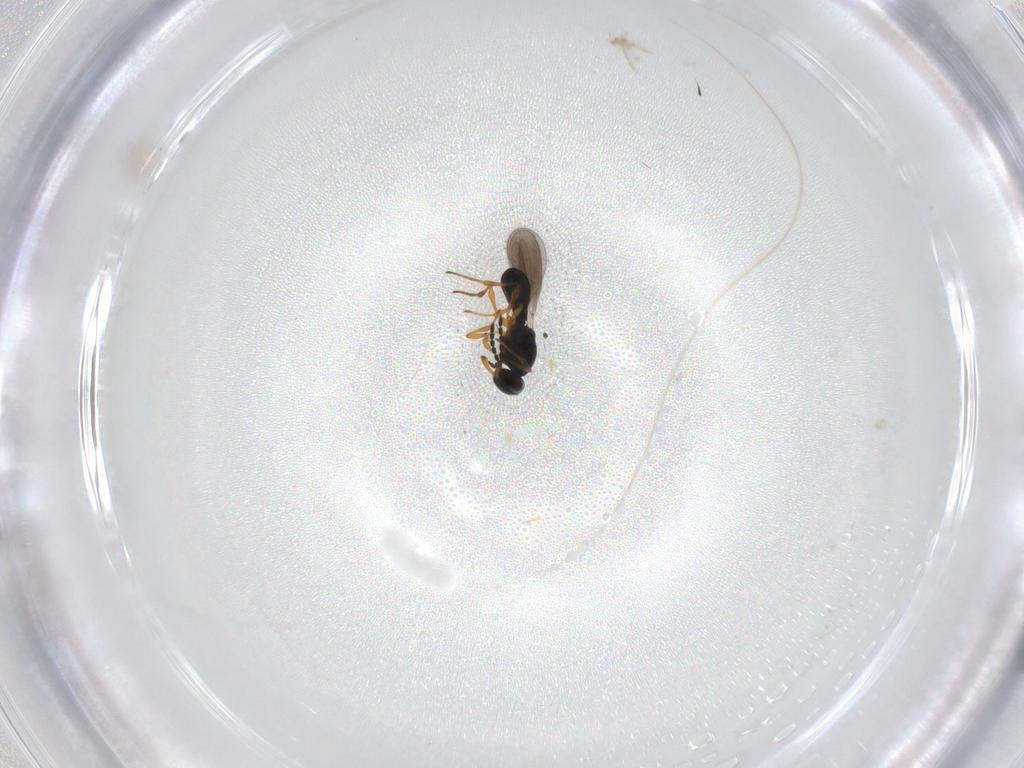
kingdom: Animalia
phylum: Arthropoda
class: Insecta
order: Hymenoptera
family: Platygastridae
